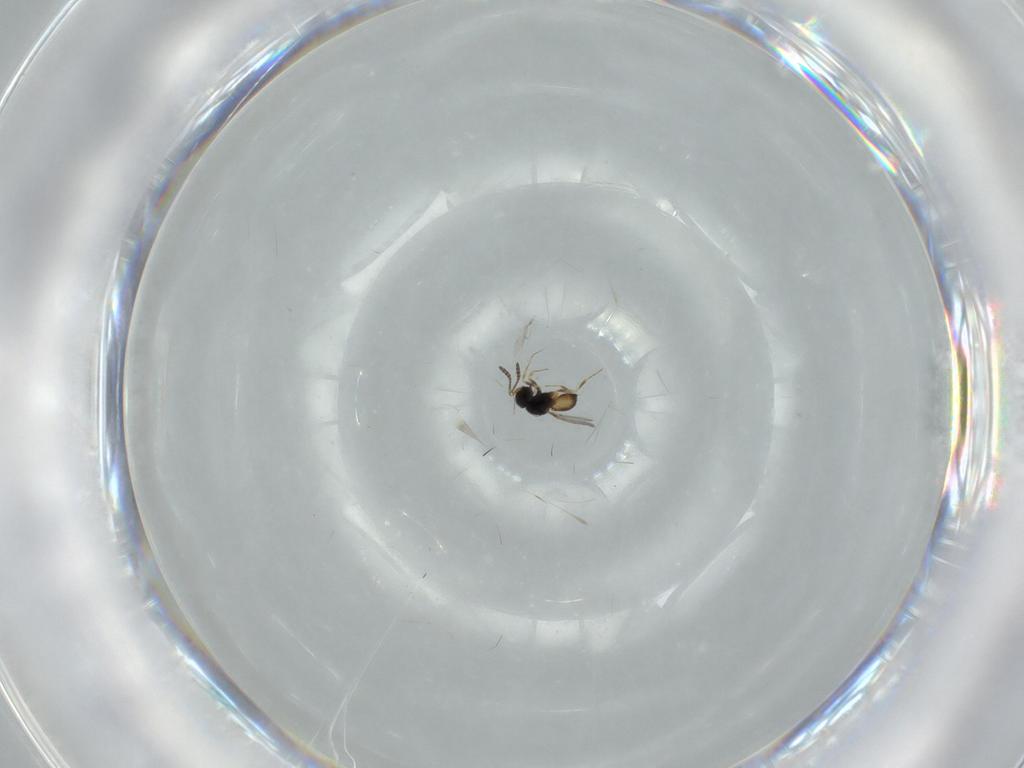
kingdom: Animalia
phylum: Arthropoda
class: Insecta
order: Hymenoptera
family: Scelionidae
